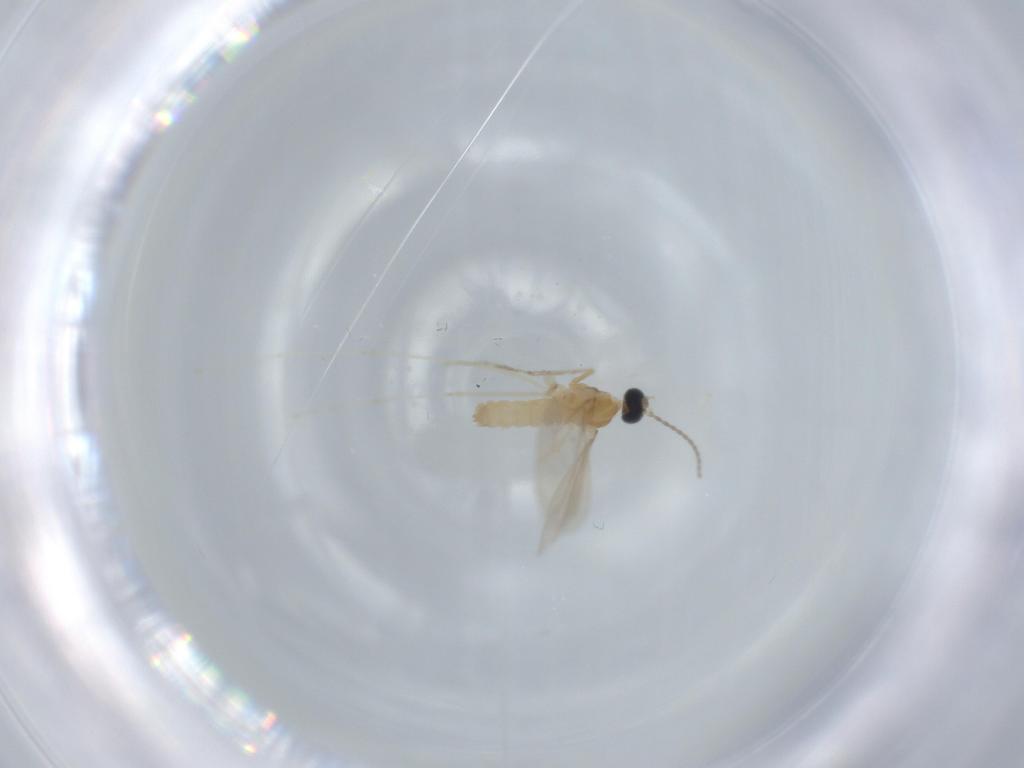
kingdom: Animalia
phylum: Arthropoda
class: Insecta
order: Diptera
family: Cecidomyiidae
